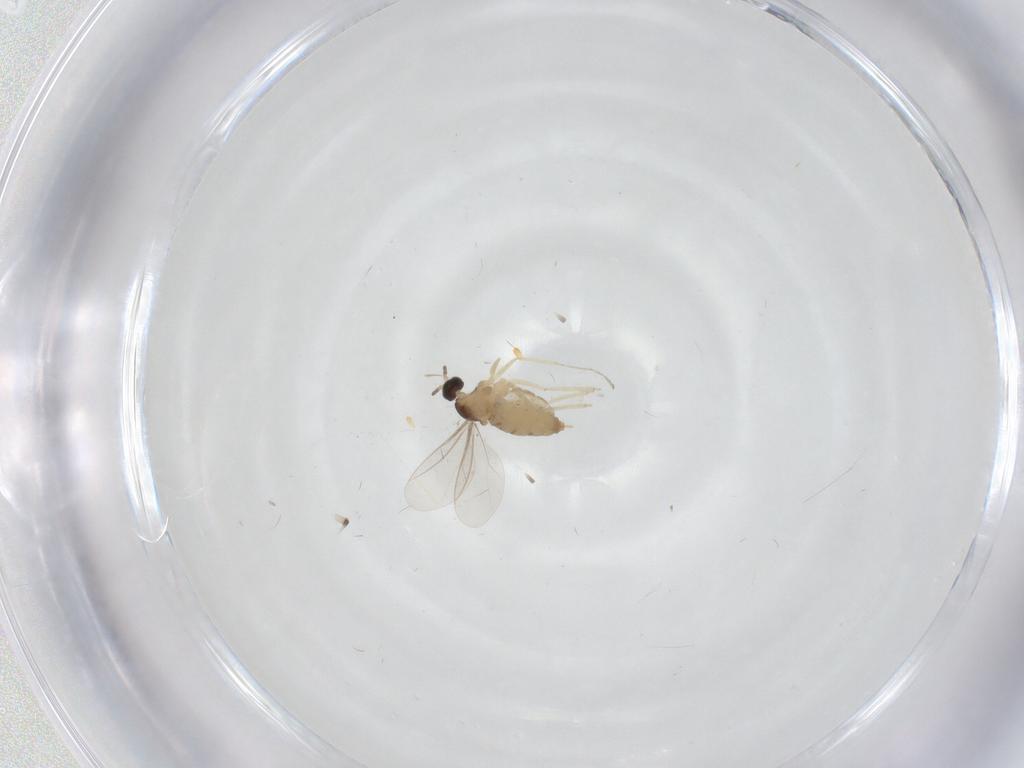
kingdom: Animalia
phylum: Arthropoda
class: Insecta
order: Diptera
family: Cecidomyiidae
